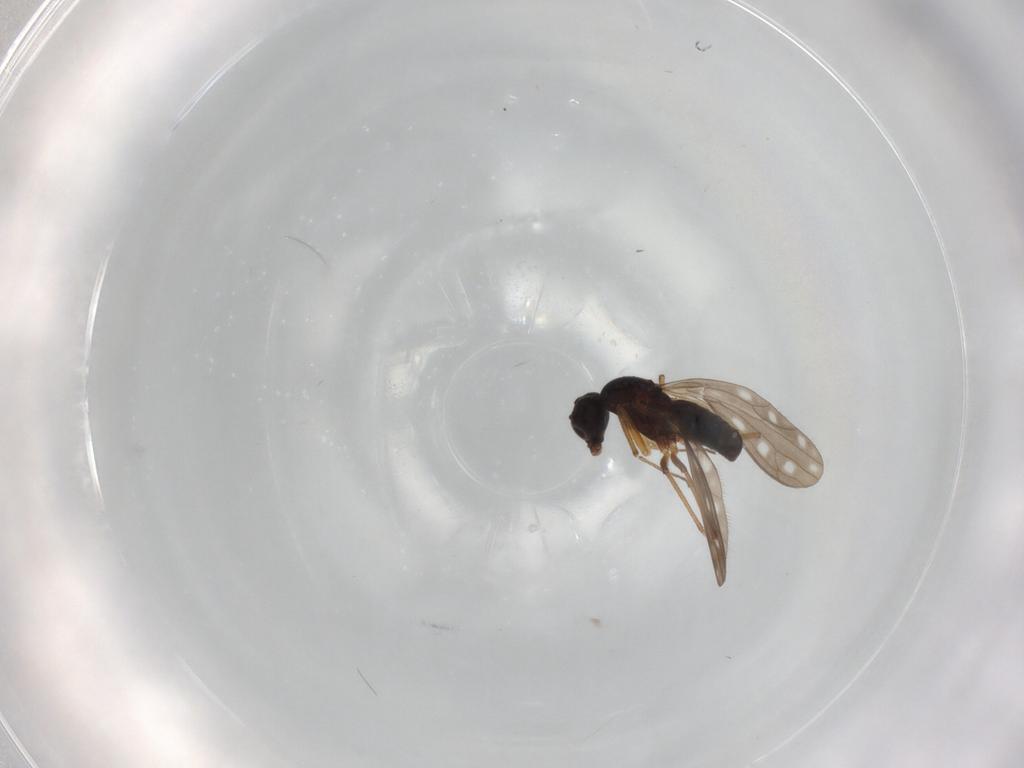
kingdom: Animalia
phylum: Arthropoda
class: Insecta
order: Diptera
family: Empididae
